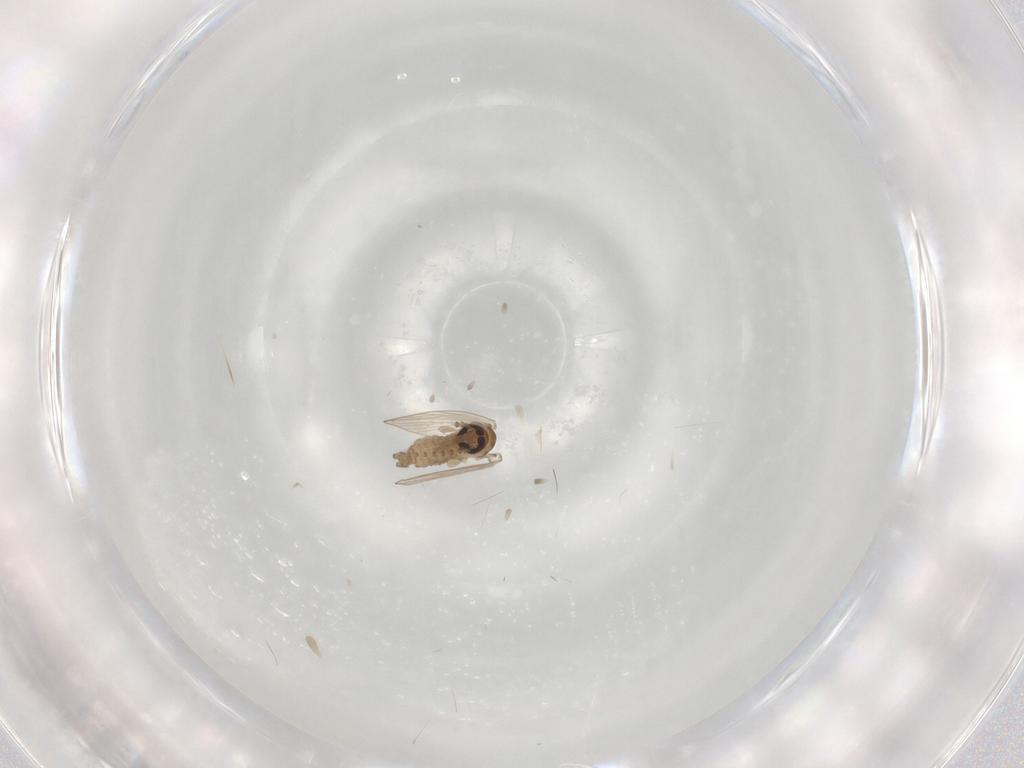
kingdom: Animalia
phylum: Arthropoda
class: Insecta
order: Diptera
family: Psychodidae
